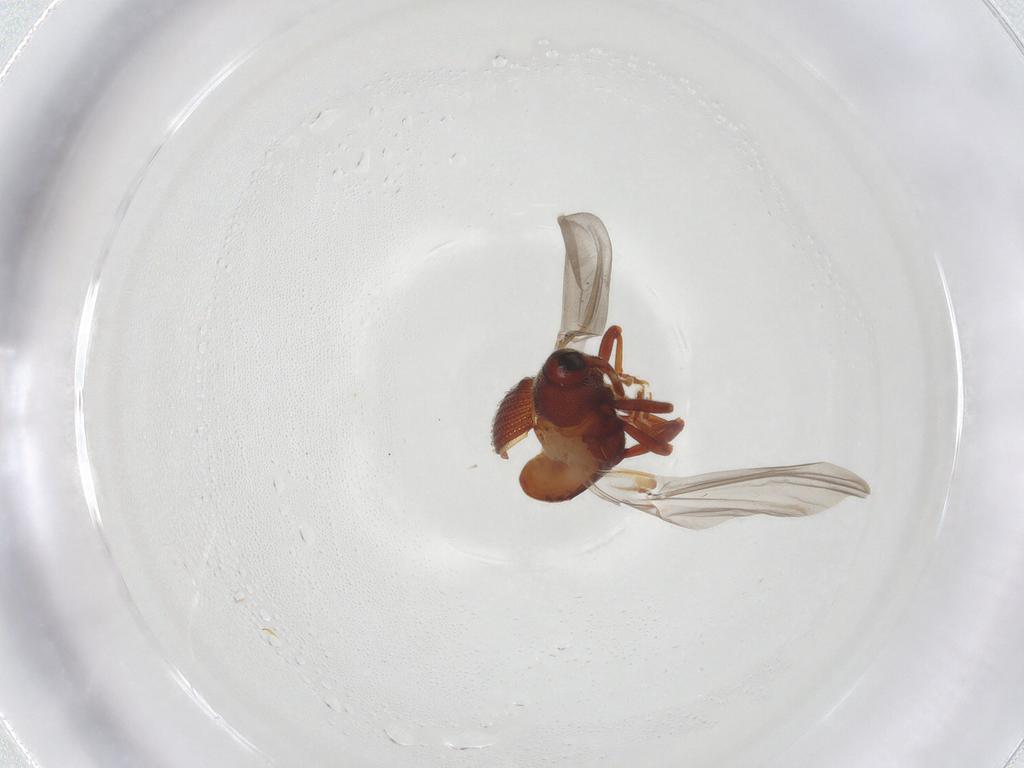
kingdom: Animalia
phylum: Arthropoda
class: Insecta
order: Coleoptera
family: Curculionidae
